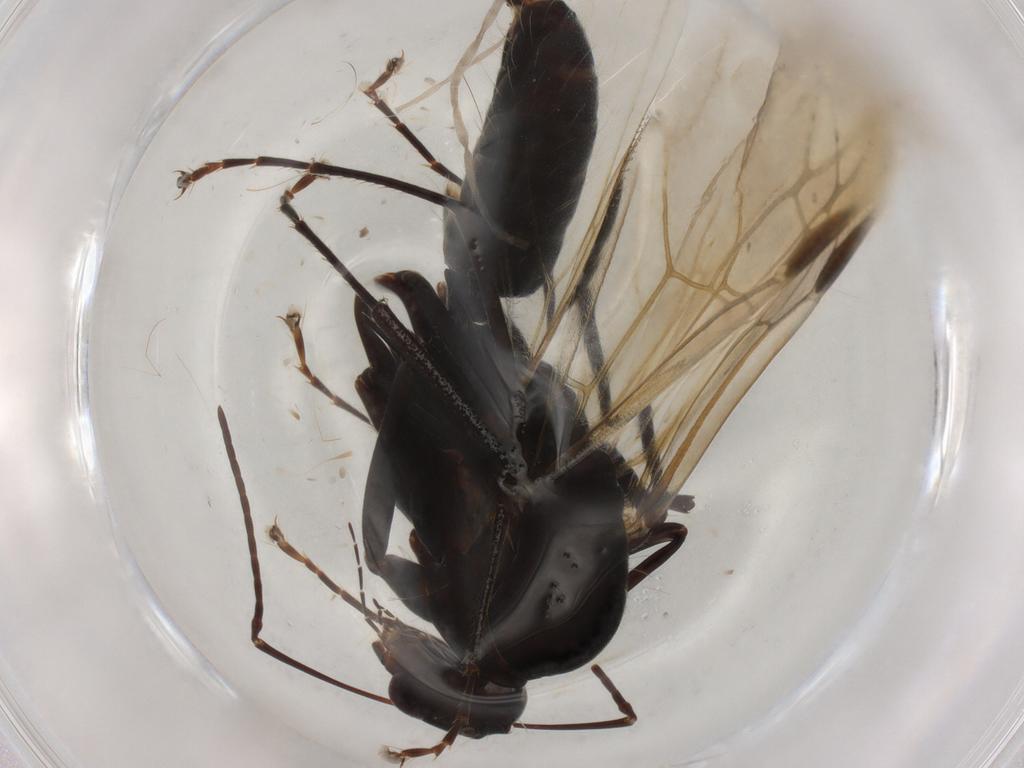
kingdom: Animalia
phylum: Arthropoda
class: Insecta
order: Hymenoptera
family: Formicidae
